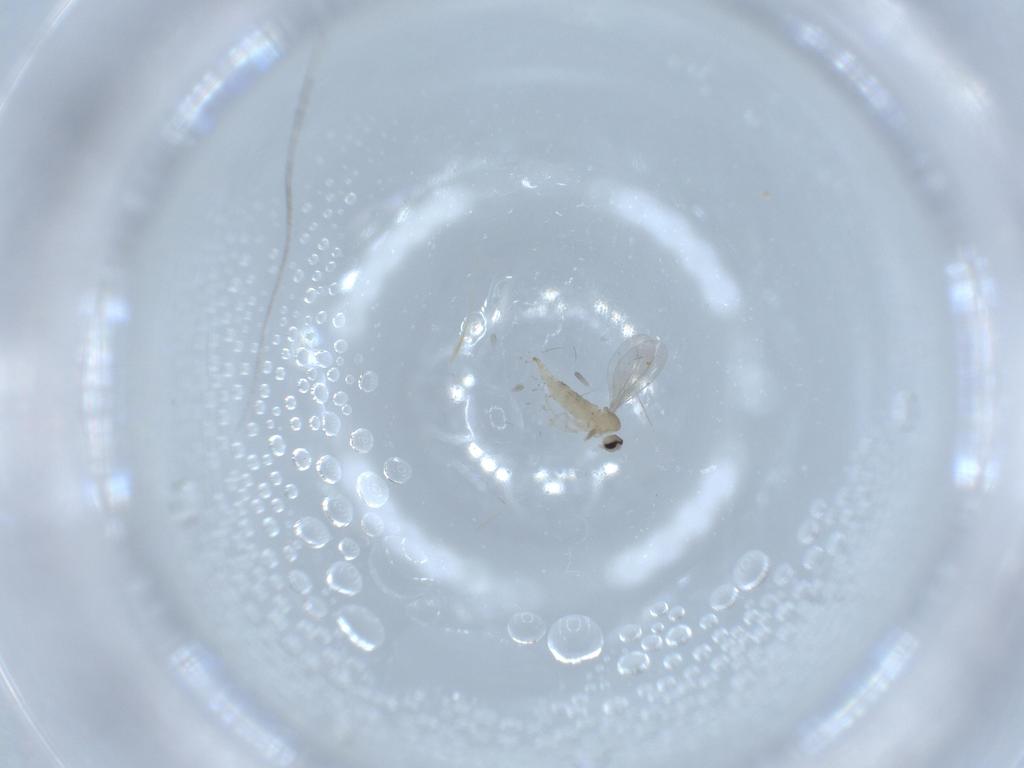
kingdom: Animalia
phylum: Arthropoda
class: Insecta
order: Diptera
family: Cecidomyiidae
